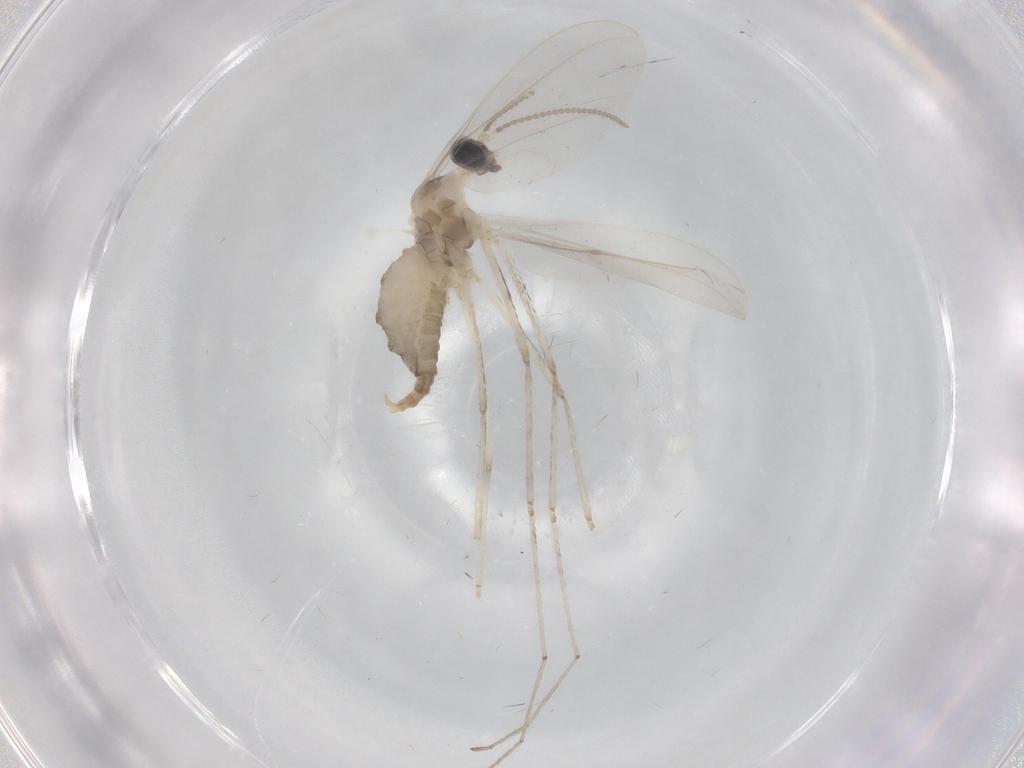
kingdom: Animalia
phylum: Arthropoda
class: Insecta
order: Diptera
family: Cecidomyiidae
